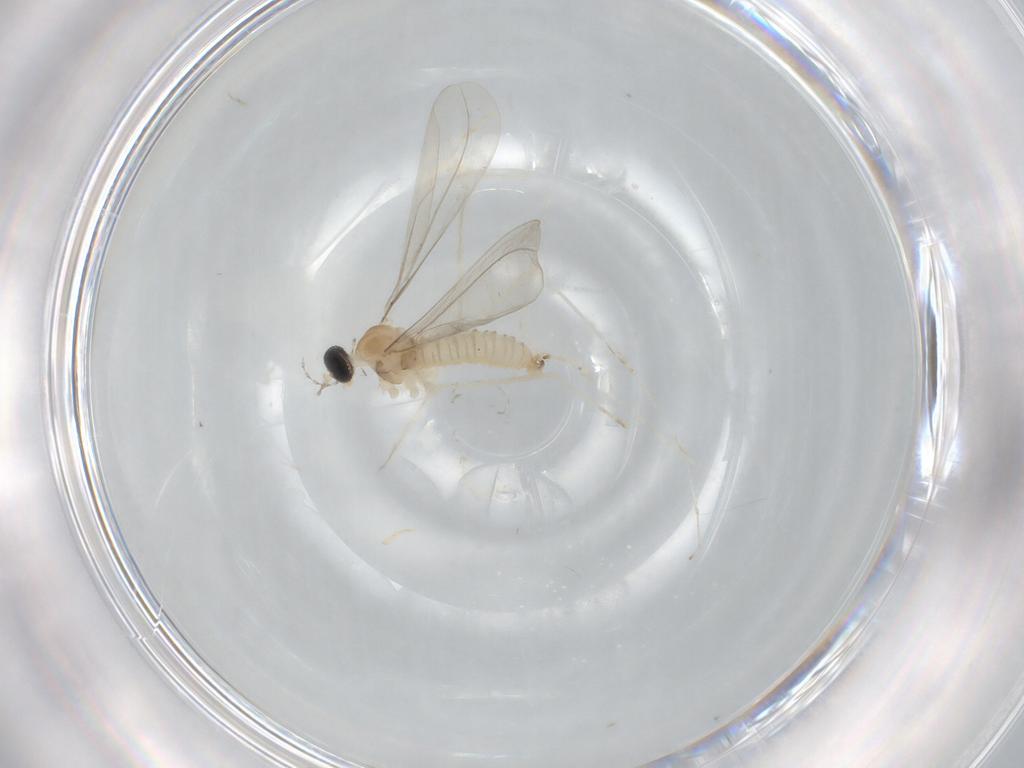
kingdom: Animalia
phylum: Arthropoda
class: Insecta
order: Diptera
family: Cecidomyiidae
